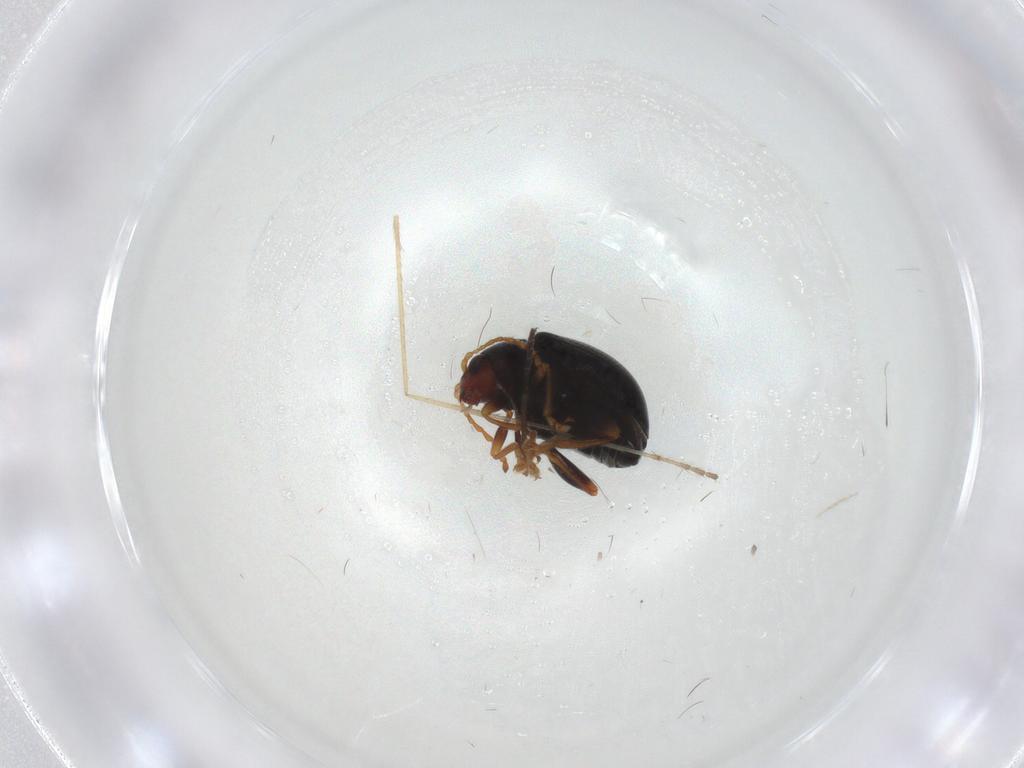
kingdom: Animalia
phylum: Arthropoda
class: Insecta
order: Coleoptera
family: Chrysomelidae
